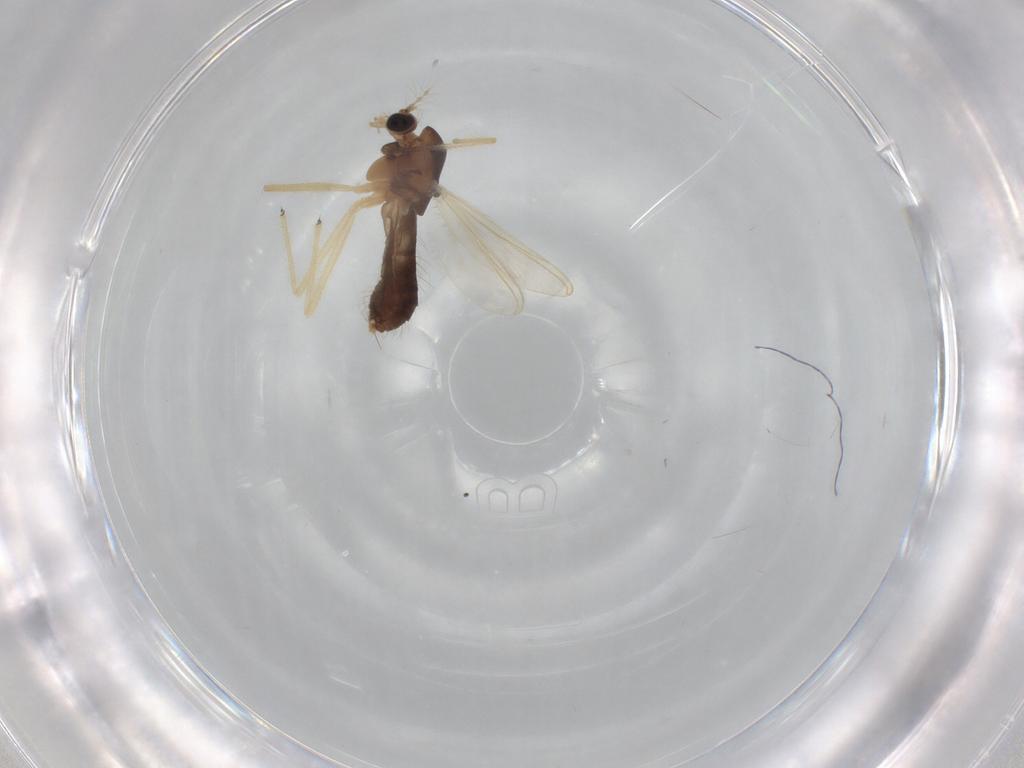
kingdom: Animalia
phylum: Arthropoda
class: Insecta
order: Diptera
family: Chironomidae
